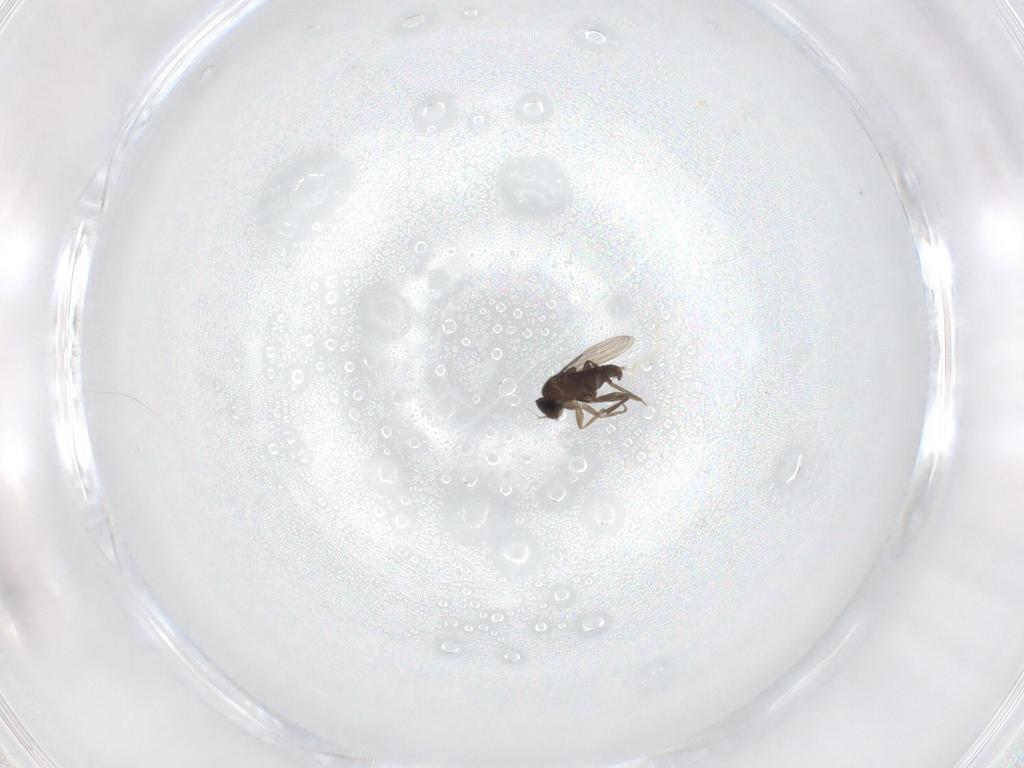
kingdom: Animalia
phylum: Arthropoda
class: Insecta
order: Diptera
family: Phoridae
